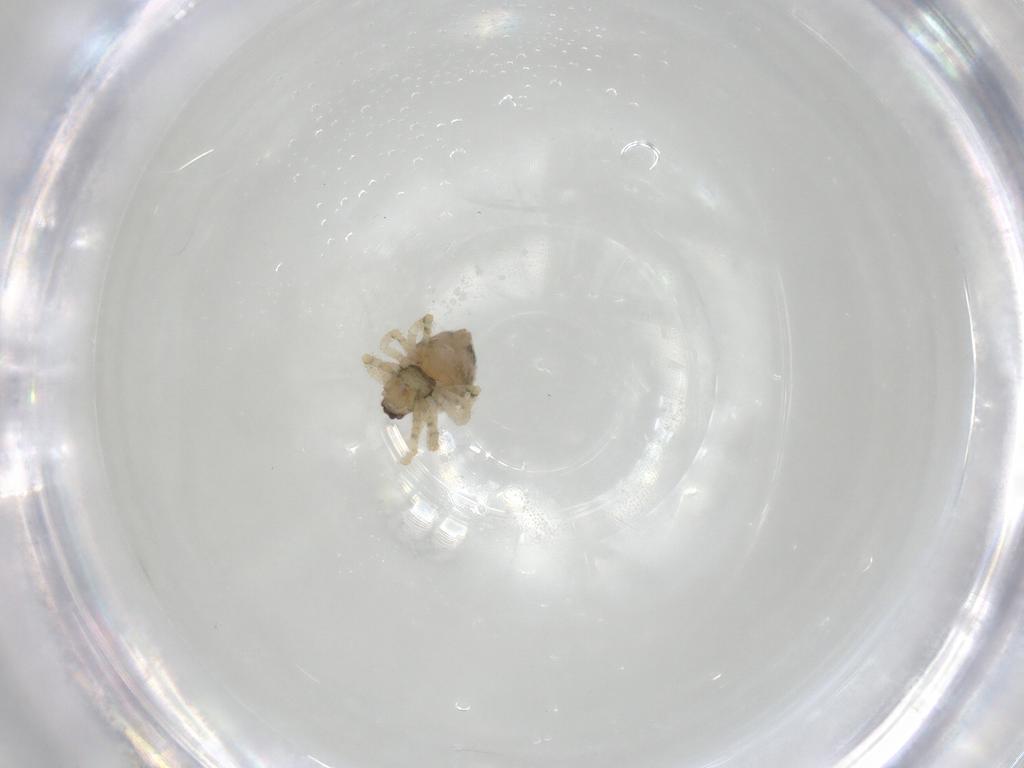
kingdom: Animalia
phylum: Arthropoda
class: Arachnida
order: Araneae
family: Theridiidae
